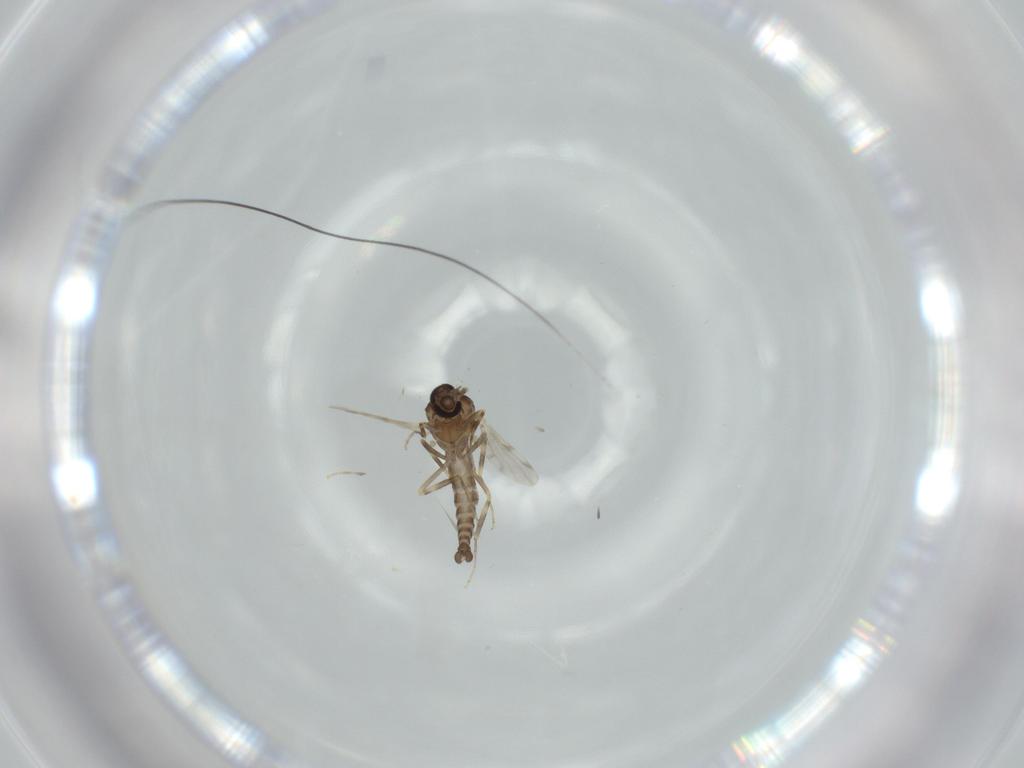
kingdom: Animalia
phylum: Arthropoda
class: Insecta
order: Diptera
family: Ceratopogonidae
